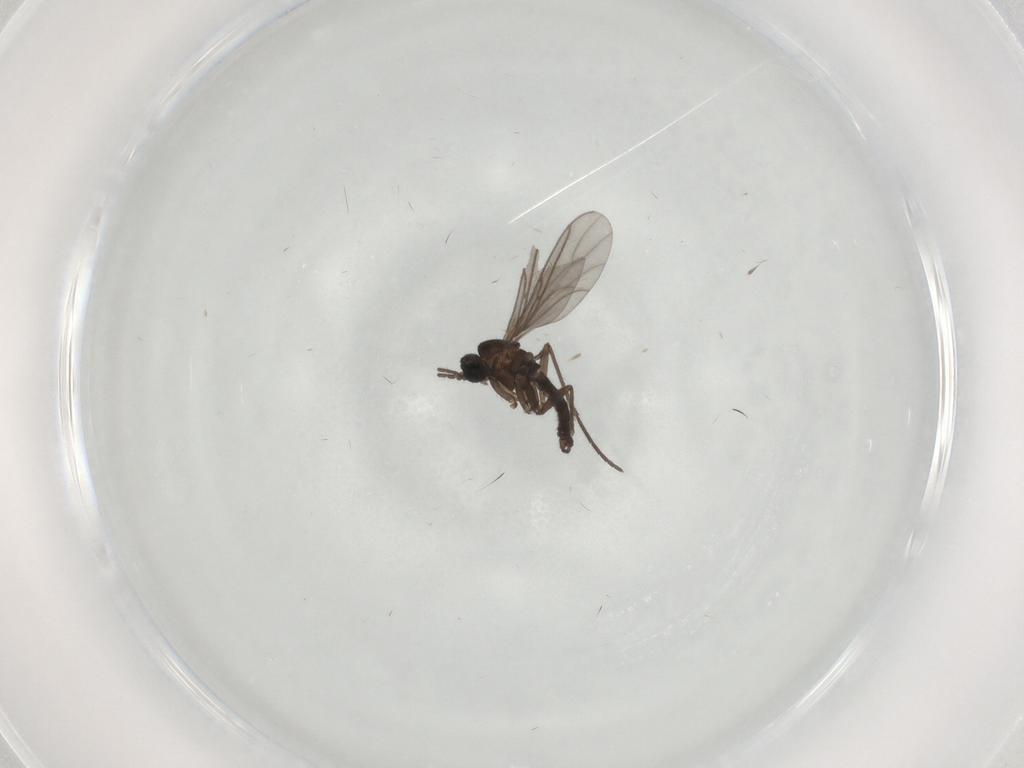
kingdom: Animalia
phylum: Arthropoda
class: Insecta
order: Diptera
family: Sciaridae
